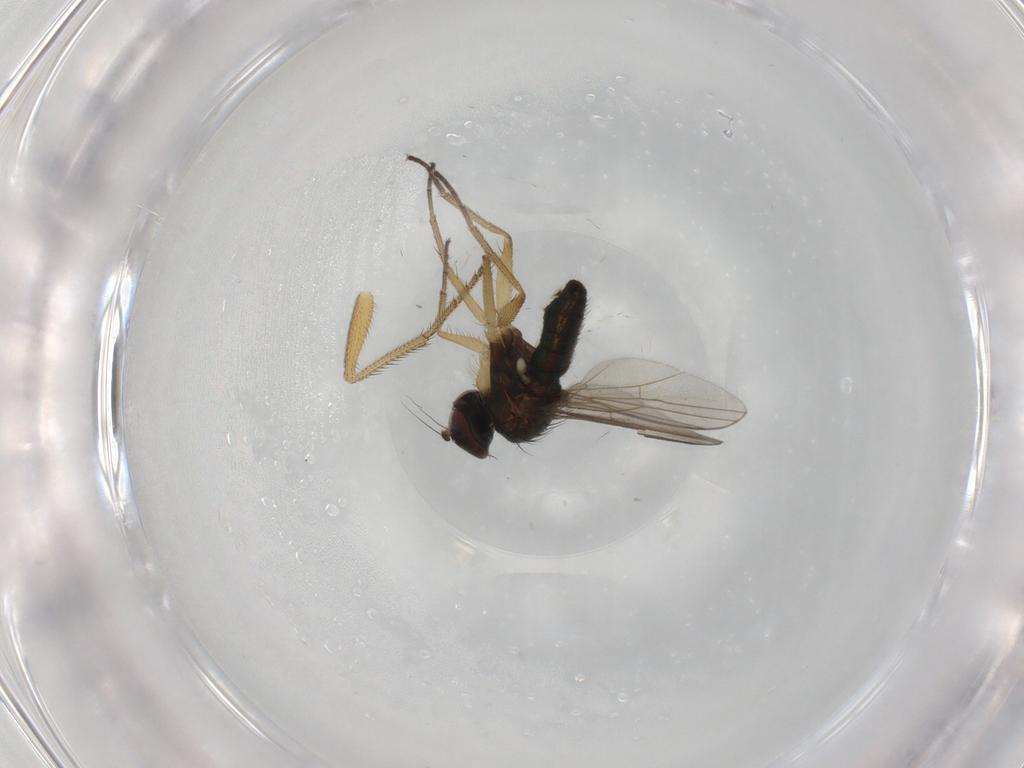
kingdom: Animalia
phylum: Arthropoda
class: Insecta
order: Diptera
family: Dolichopodidae
